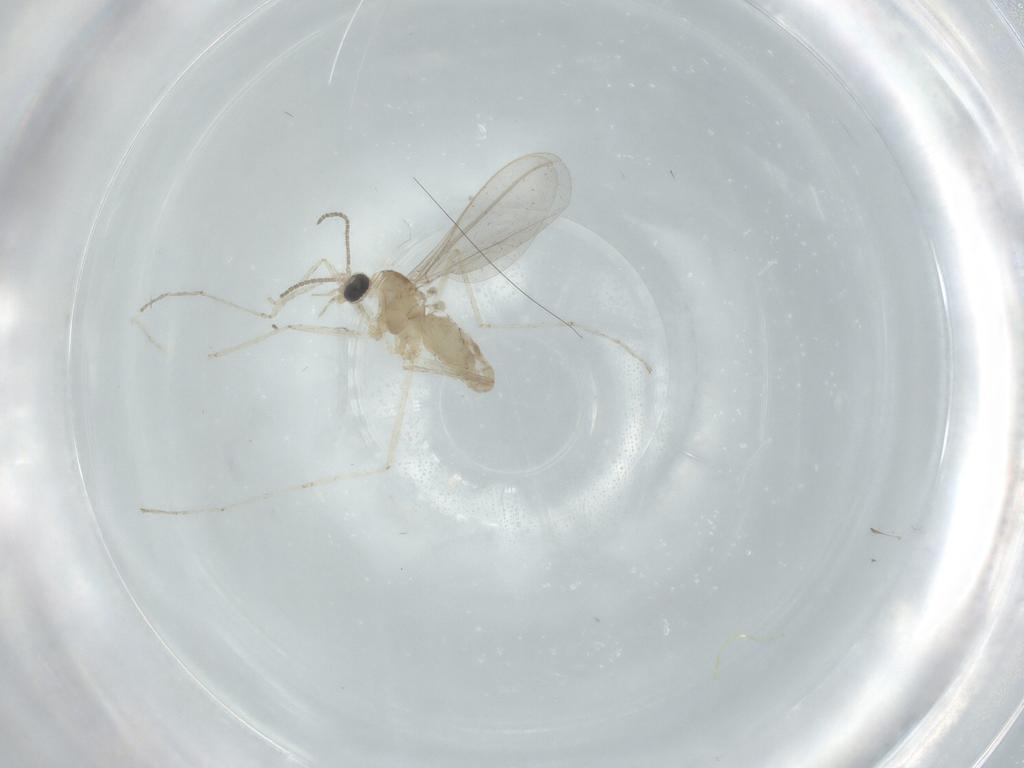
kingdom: Animalia
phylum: Arthropoda
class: Insecta
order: Diptera
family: Cecidomyiidae
